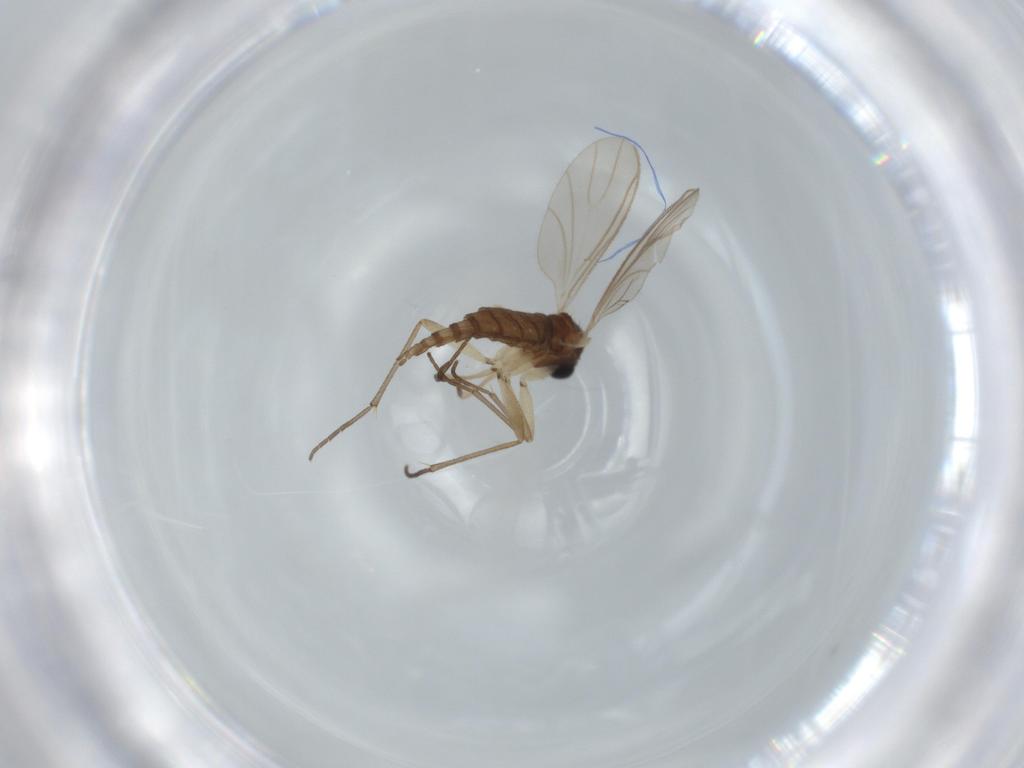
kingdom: Animalia
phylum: Arthropoda
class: Insecta
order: Diptera
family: Sciaridae
